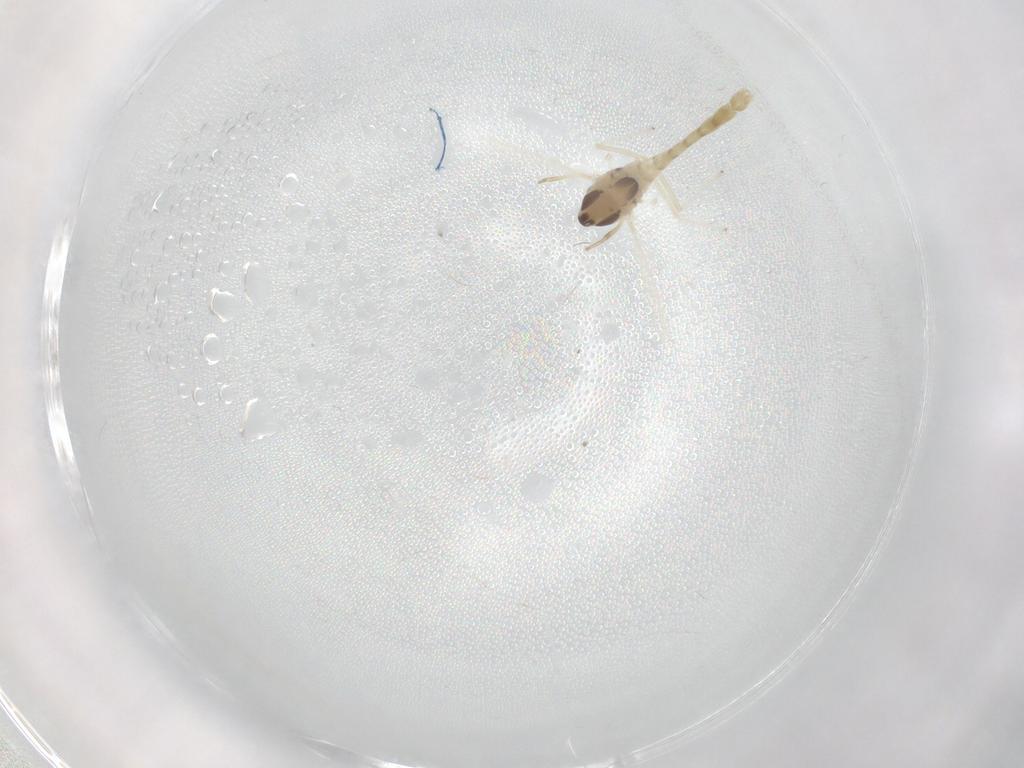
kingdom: Animalia
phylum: Arthropoda
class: Insecta
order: Diptera
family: Chironomidae
